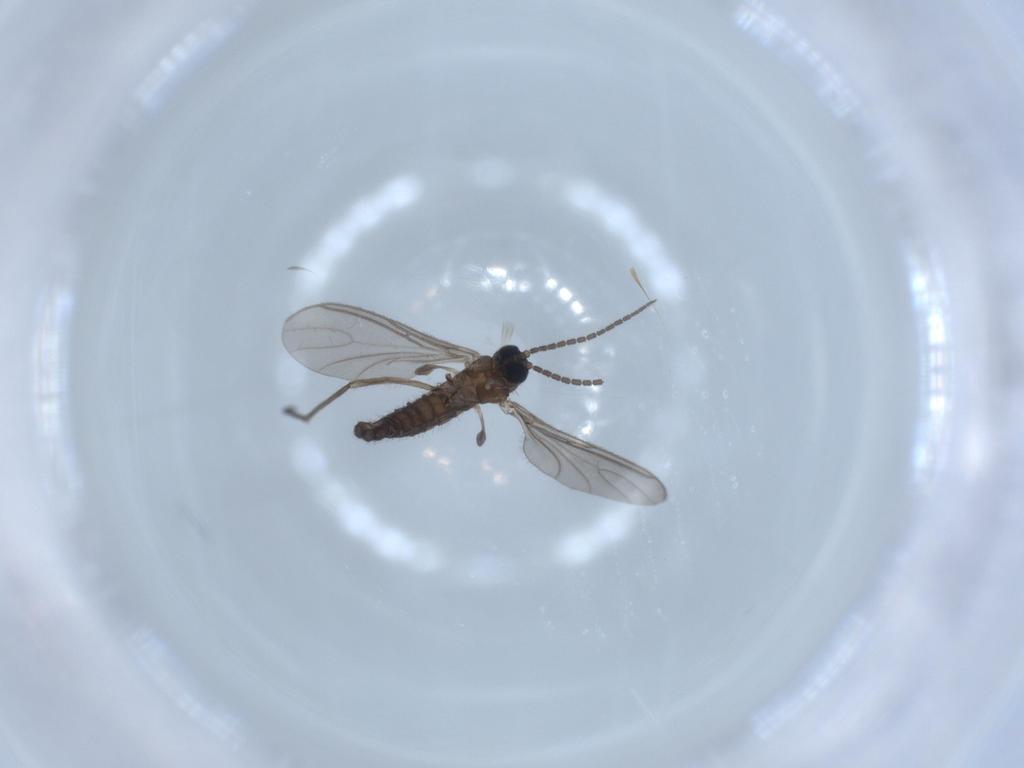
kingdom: Animalia
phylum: Arthropoda
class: Insecta
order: Diptera
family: Sciaridae
